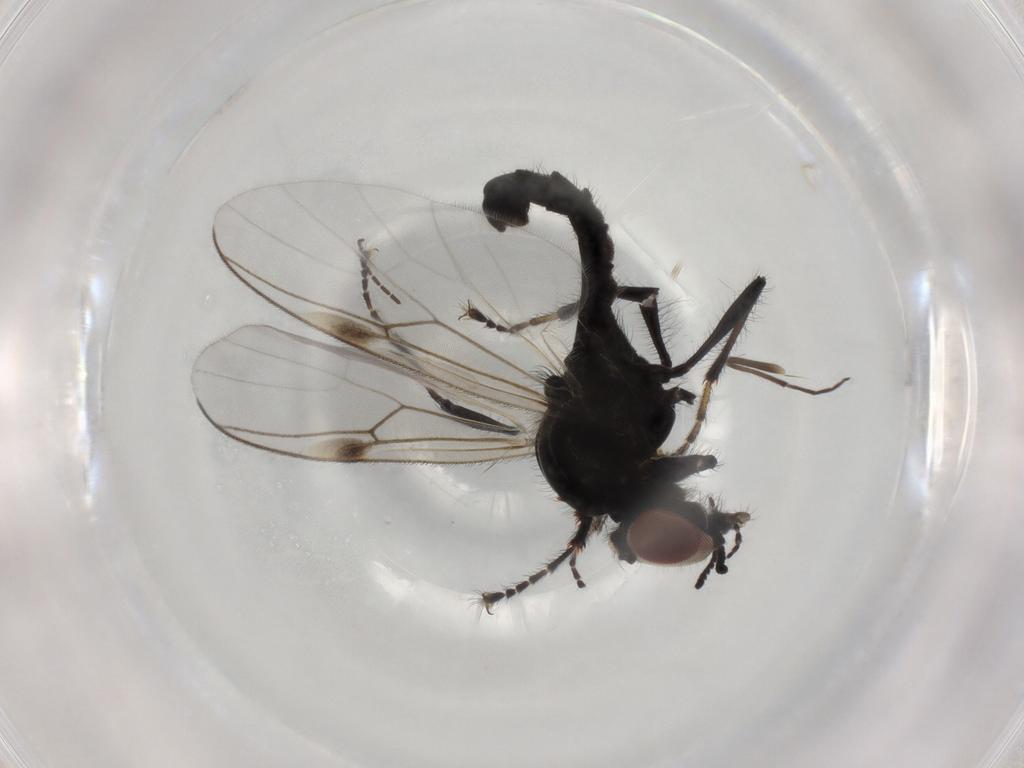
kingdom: Animalia
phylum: Arthropoda
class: Insecta
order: Diptera
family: Bibionidae
